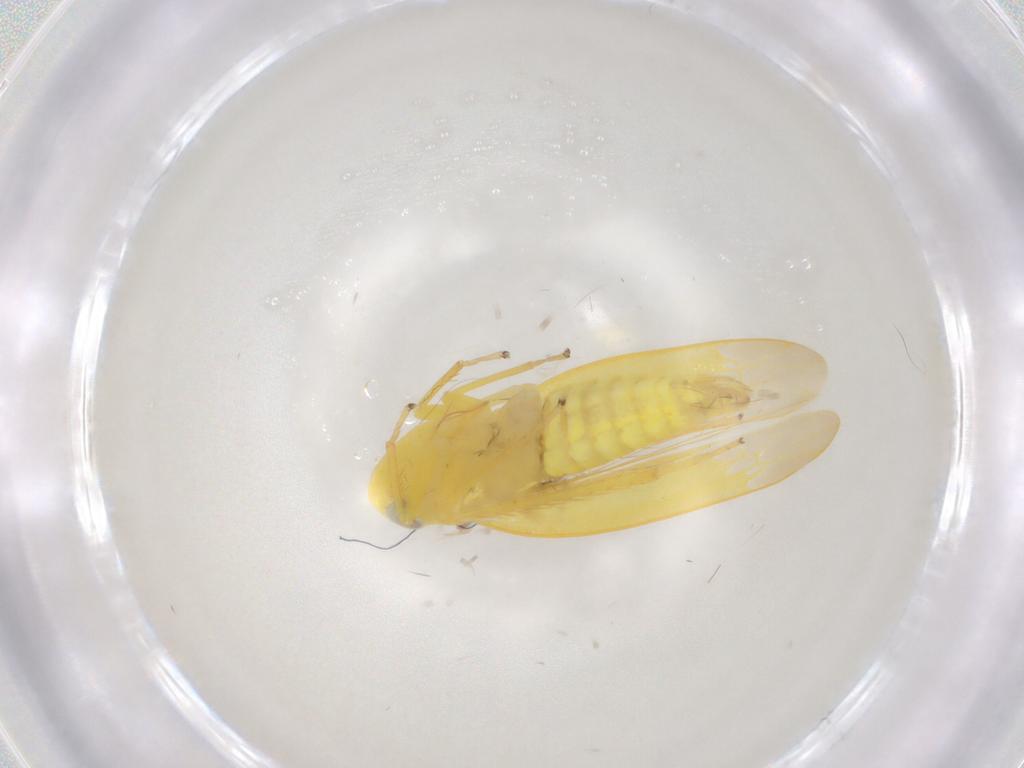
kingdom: Animalia
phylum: Arthropoda
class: Insecta
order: Hemiptera
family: Cicadellidae
